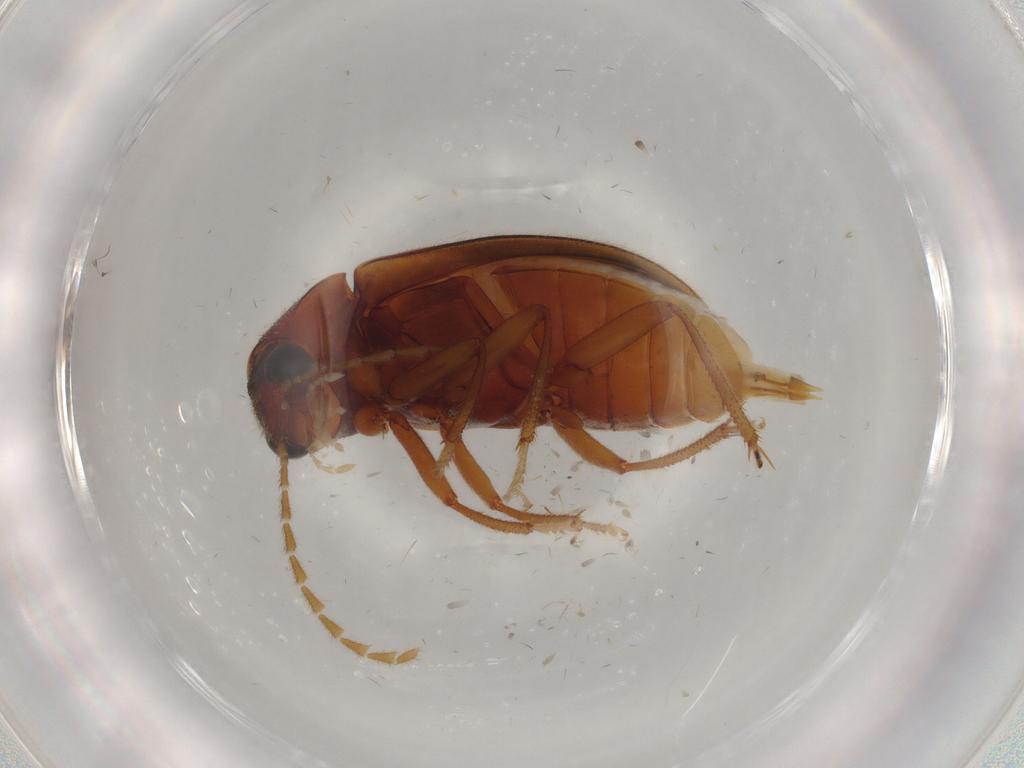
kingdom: Animalia
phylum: Arthropoda
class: Insecta
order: Coleoptera
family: Ptilodactylidae
